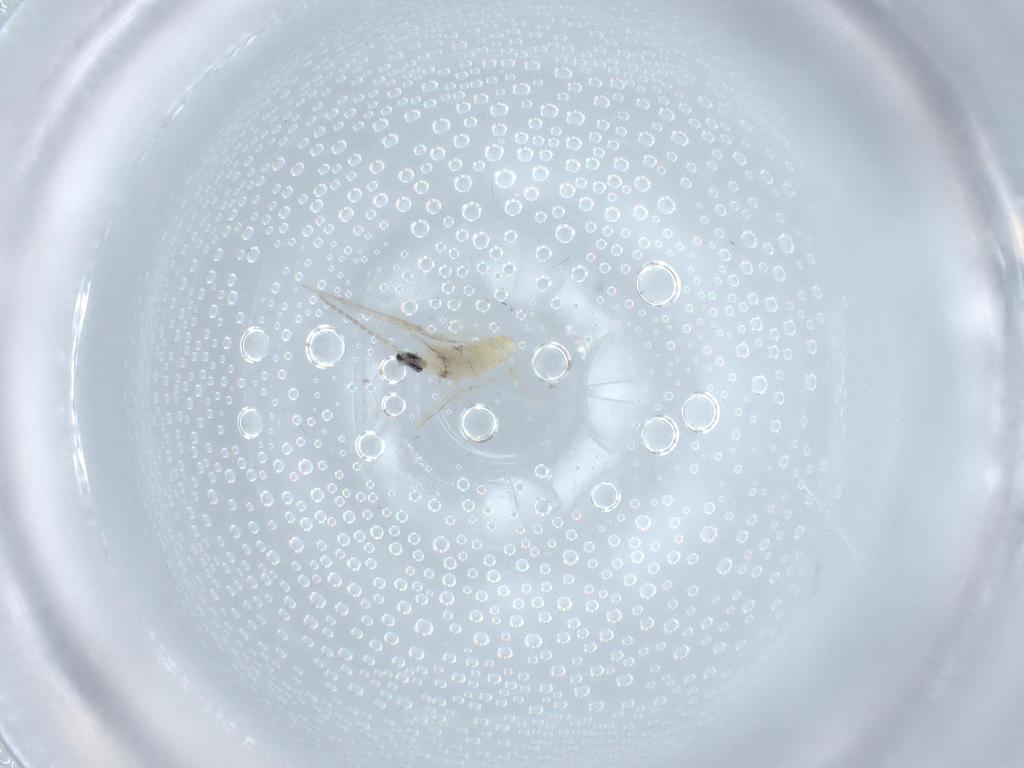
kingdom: Animalia
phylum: Arthropoda
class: Insecta
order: Diptera
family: Cecidomyiidae
